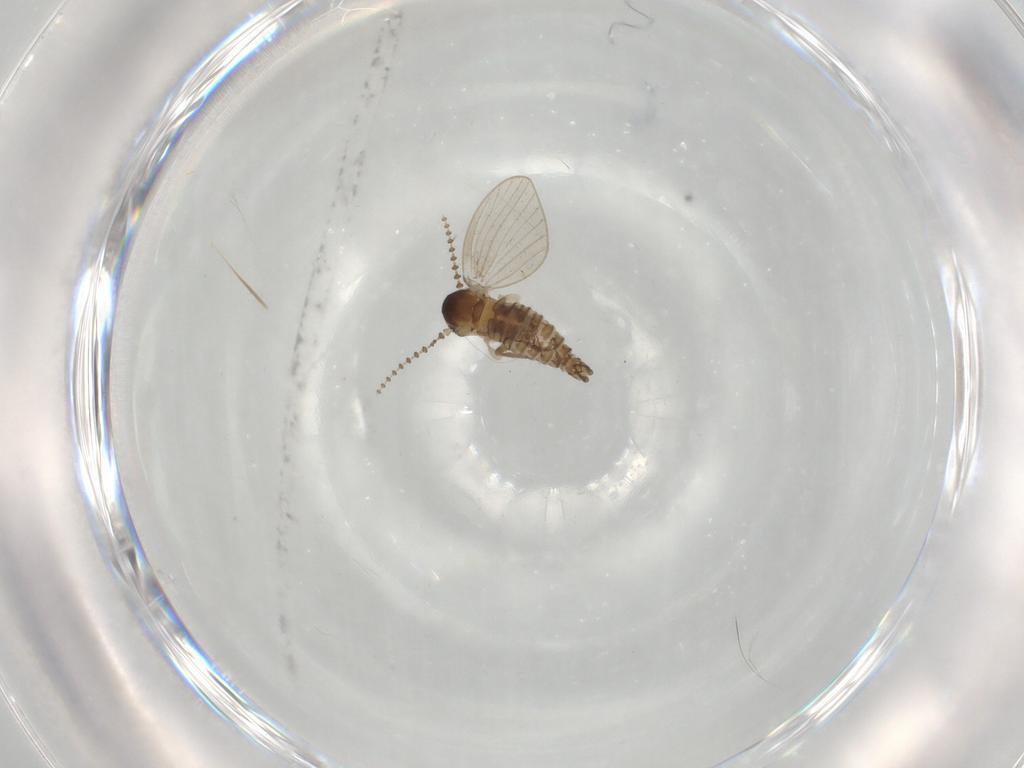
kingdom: Animalia
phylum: Arthropoda
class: Insecta
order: Diptera
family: Psychodidae
